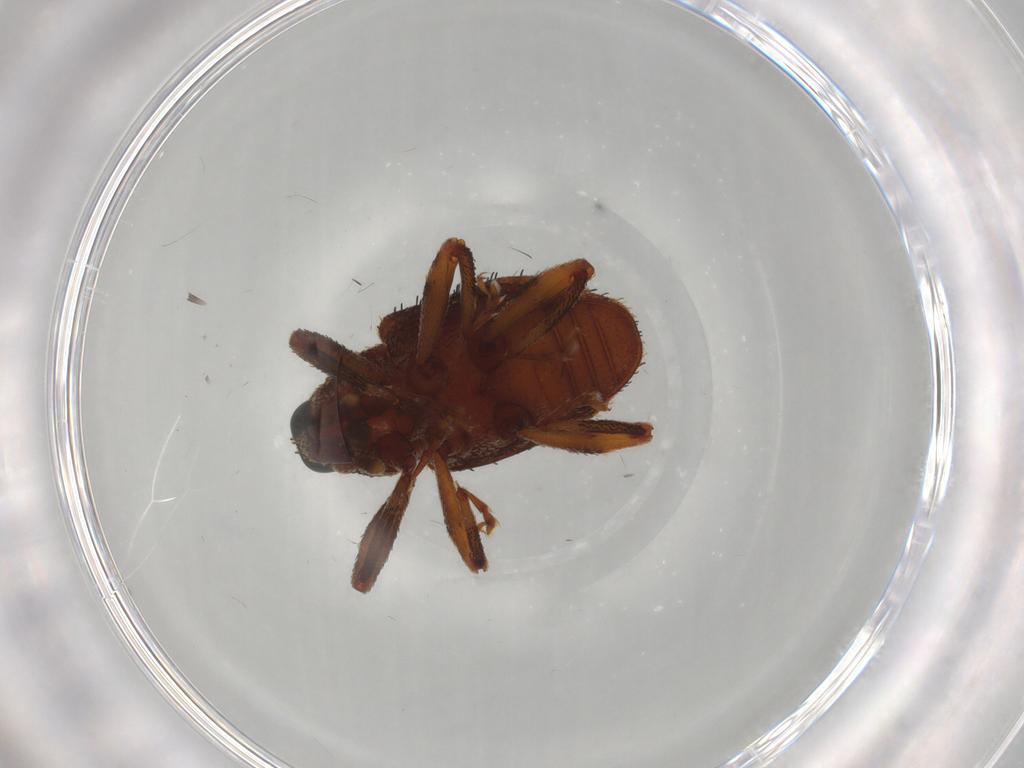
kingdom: Animalia
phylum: Arthropoda
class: Insecta
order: Coleoptera
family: Curculionidae
